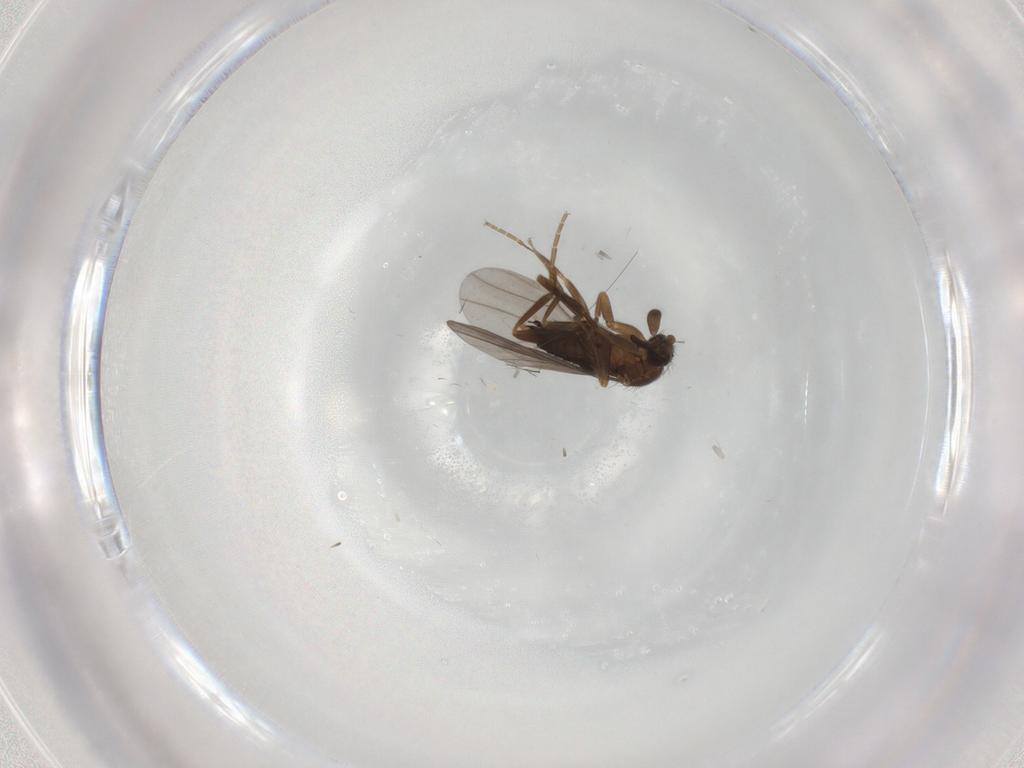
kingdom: Animalia
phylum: Arthropoda
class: Insecta
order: Diptera
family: Phoridae
